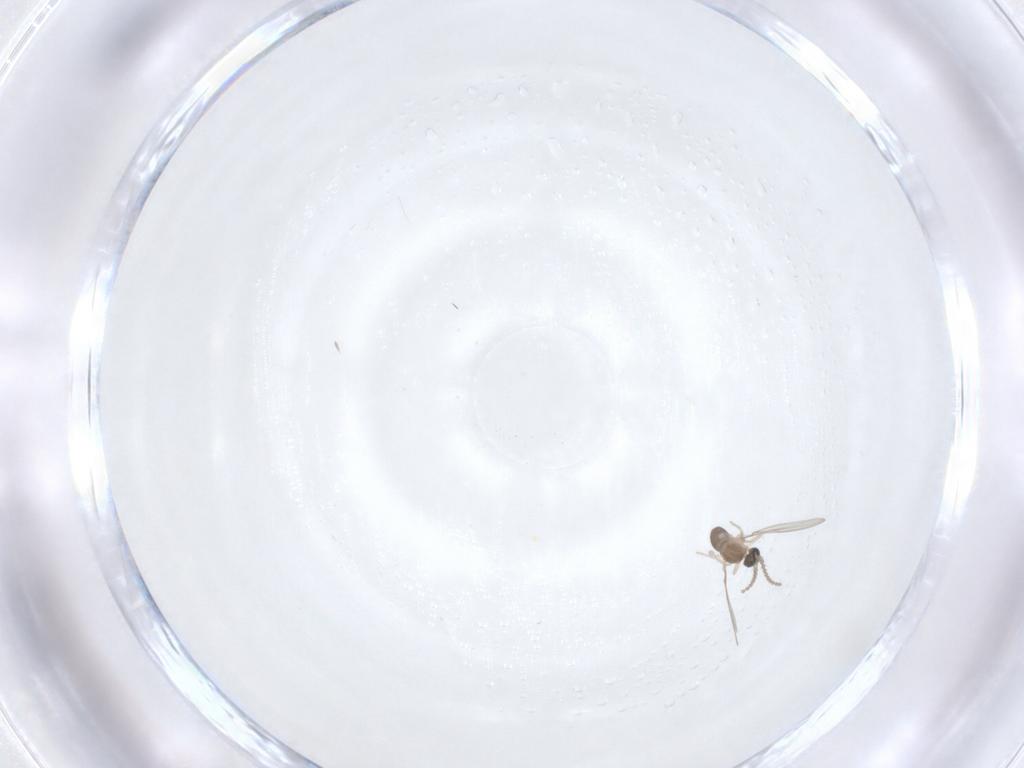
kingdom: Animalia
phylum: Arthropoda
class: Insecta
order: Diptera
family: Cecidomyiidae
